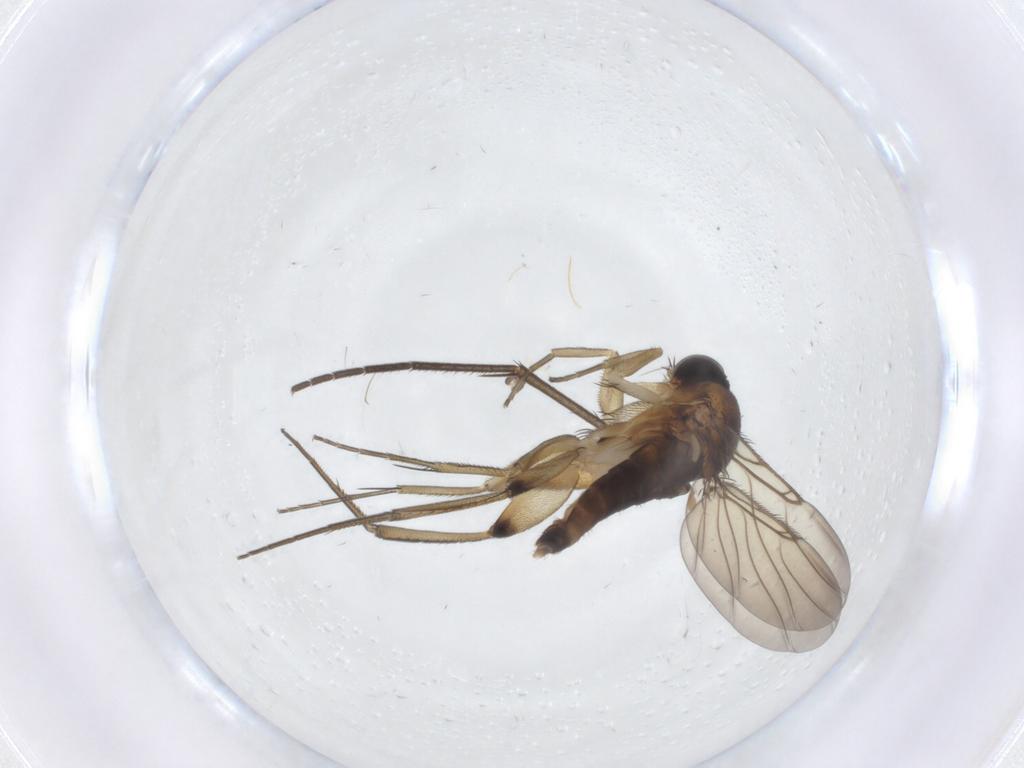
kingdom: Animalia
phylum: Arthropoda
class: Insecta
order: Diptera
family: Phoridae
